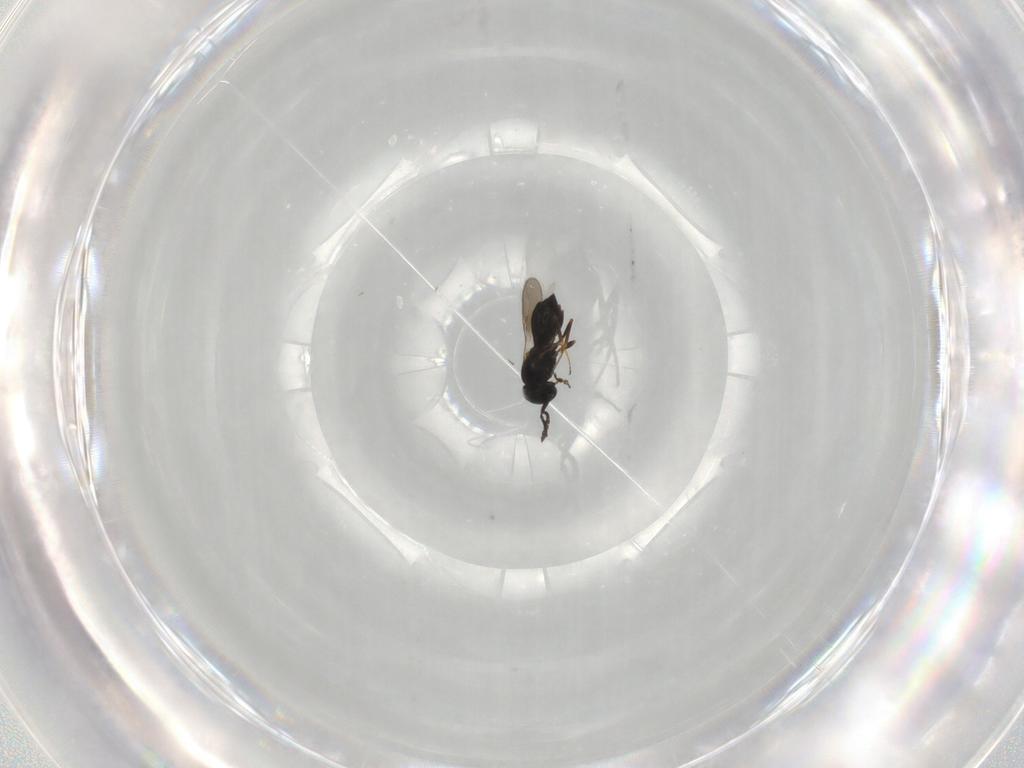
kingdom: Animalia
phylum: Arthropoda
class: Insecta
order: Hymenoptera
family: Scelionidae
